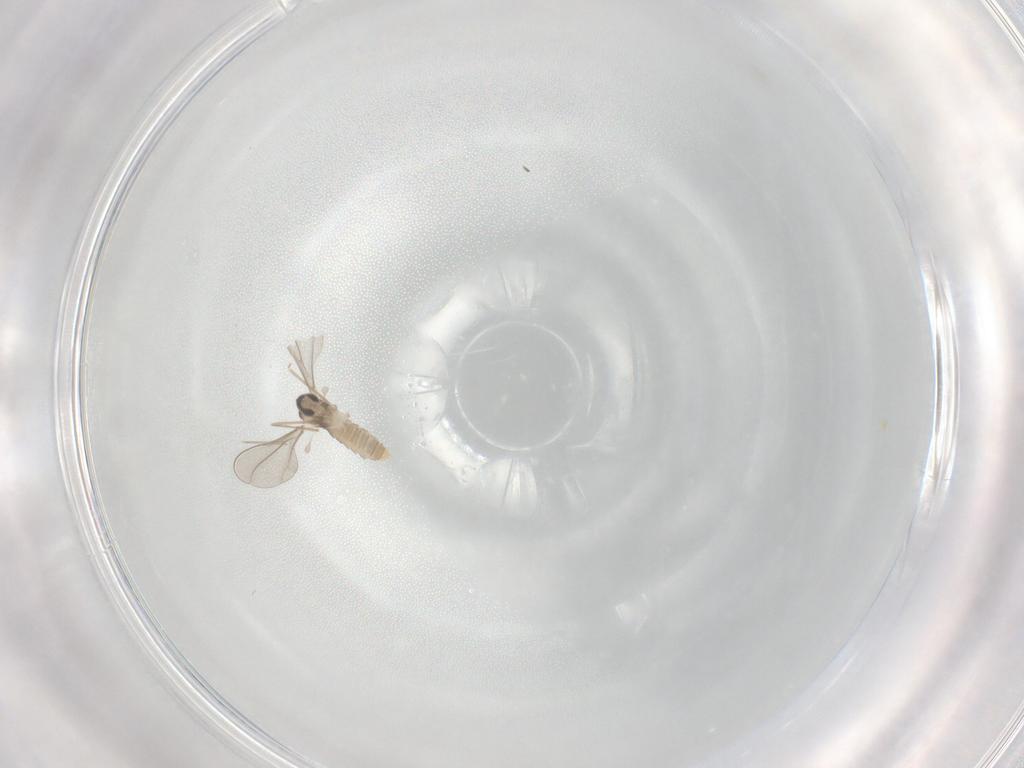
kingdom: Animalia
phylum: Arthropoda
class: Insecta
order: Diptera
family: Cecidomyiidae
